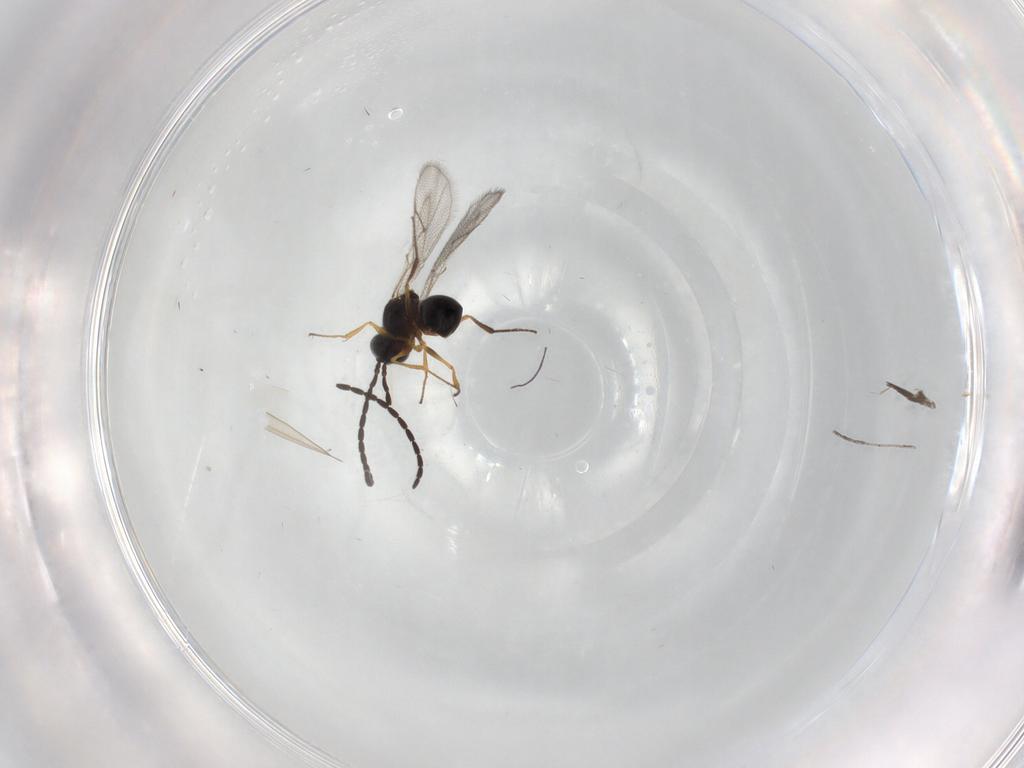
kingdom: Animalia
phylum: Arthropoda
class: Insecta
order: Hymenoptera
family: Figitidae
